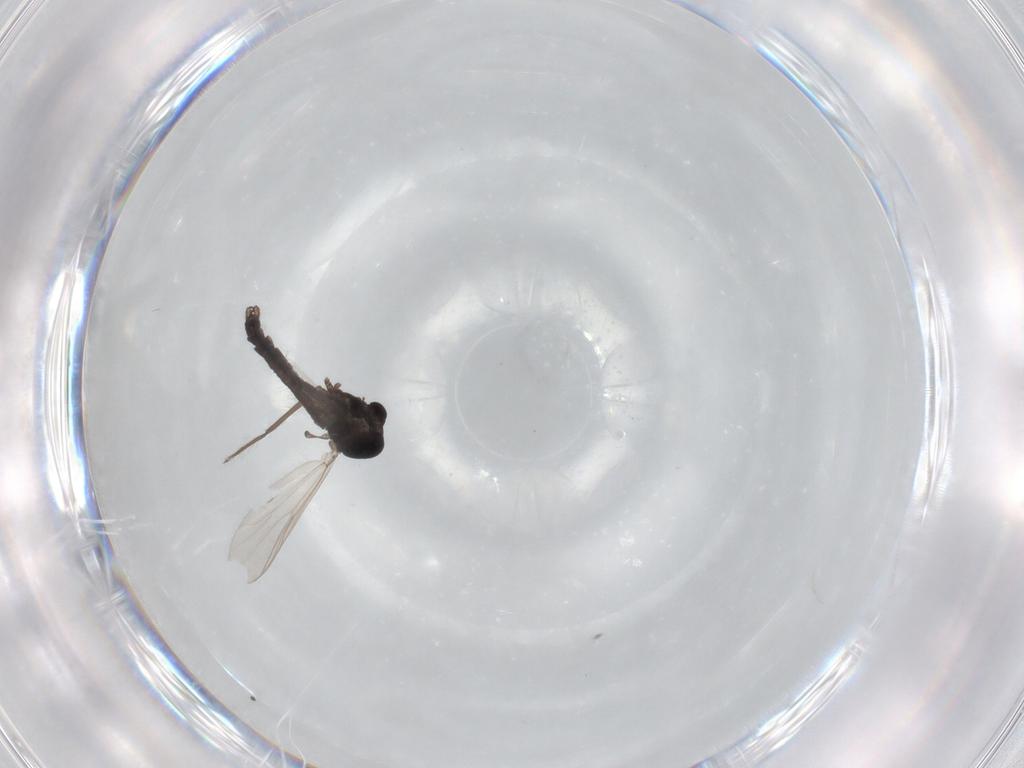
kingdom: Animalia
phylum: Arthropoda
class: Insecta
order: Diptera
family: Chironomidae
